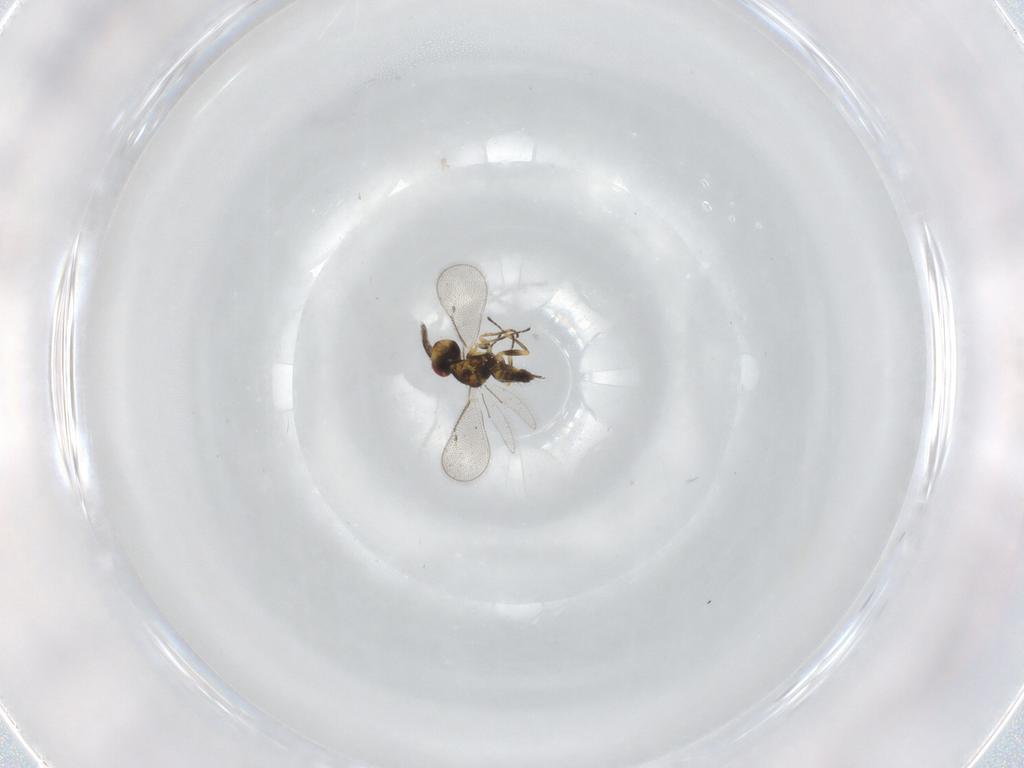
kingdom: Animalia
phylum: Arthropoda
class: Insecta
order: Hymenoptera
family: Eulophidae
